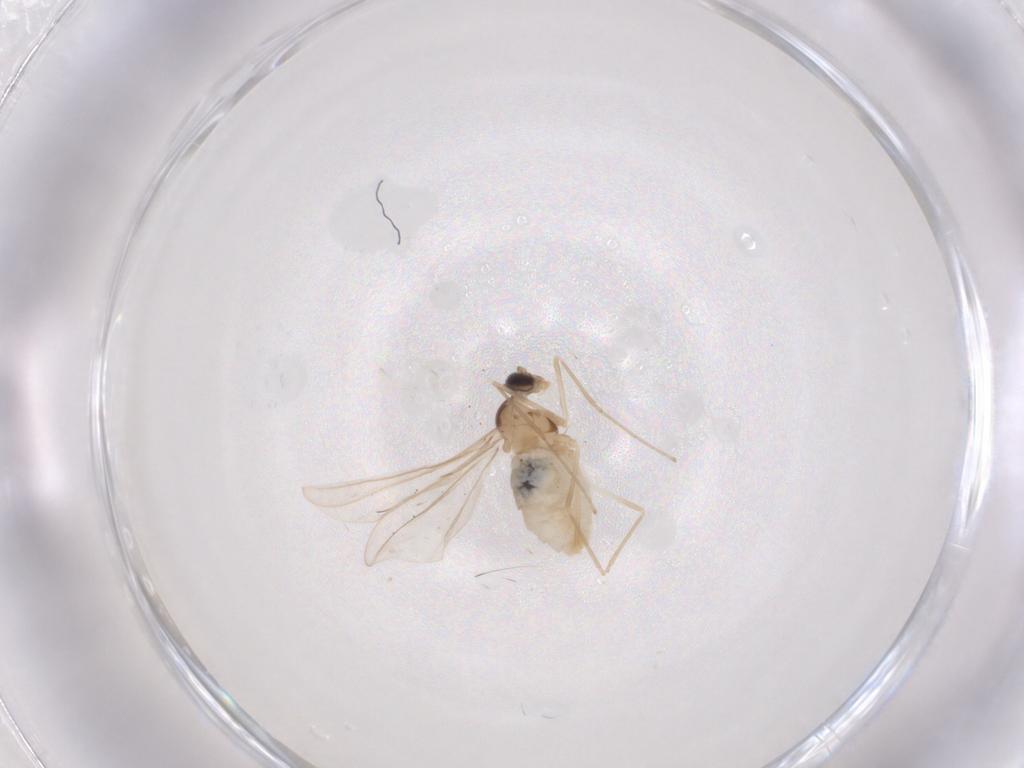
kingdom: Animalia
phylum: Arthropoda
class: Insecta
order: Diptera
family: Cecidomyiidae
